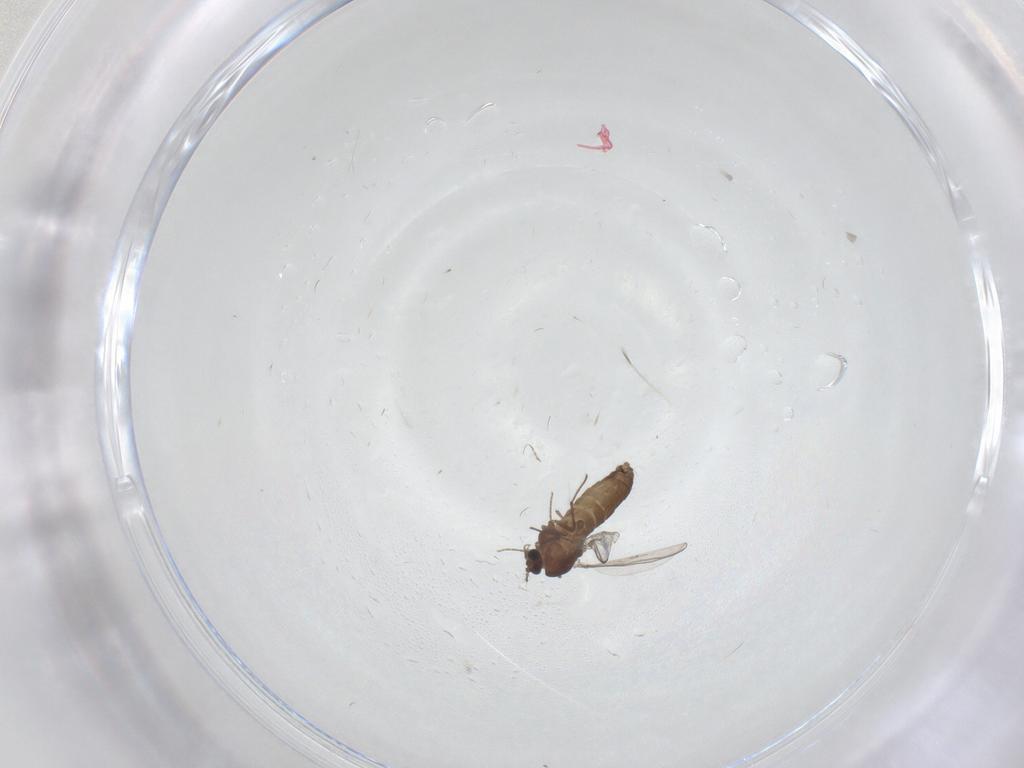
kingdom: Animalia
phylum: Arthropoda
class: Insecta
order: Diptera
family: Chironomidae
